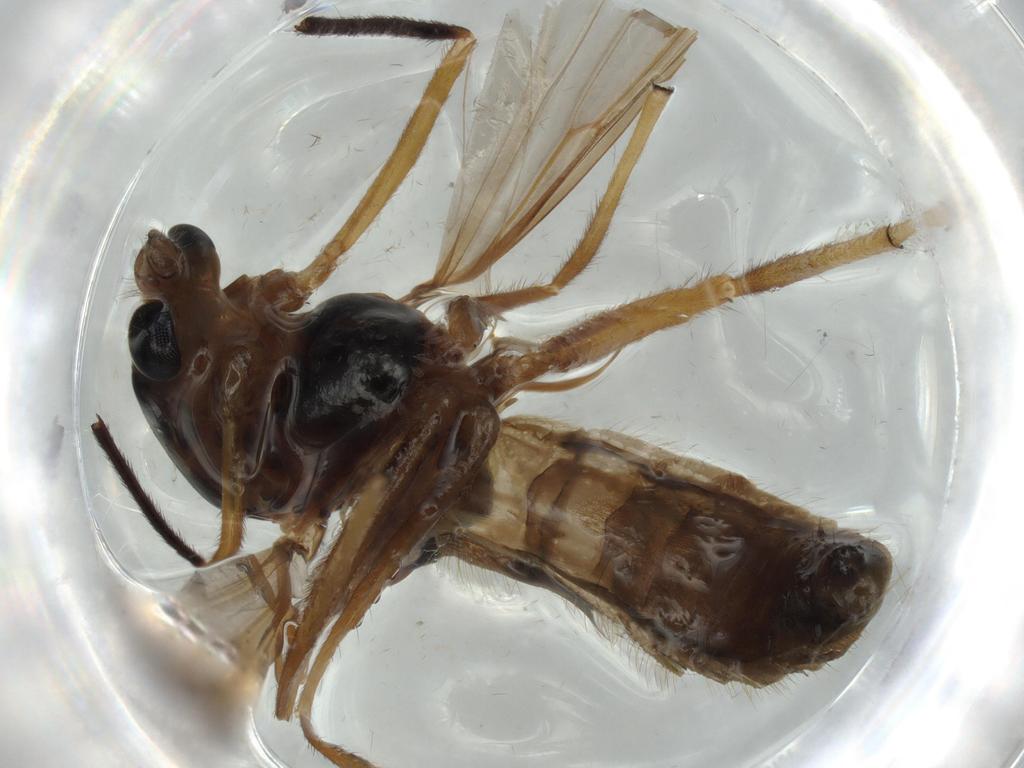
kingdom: Animalia
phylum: Arthropoda
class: Insecta
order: Diptera
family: Chironomidae
